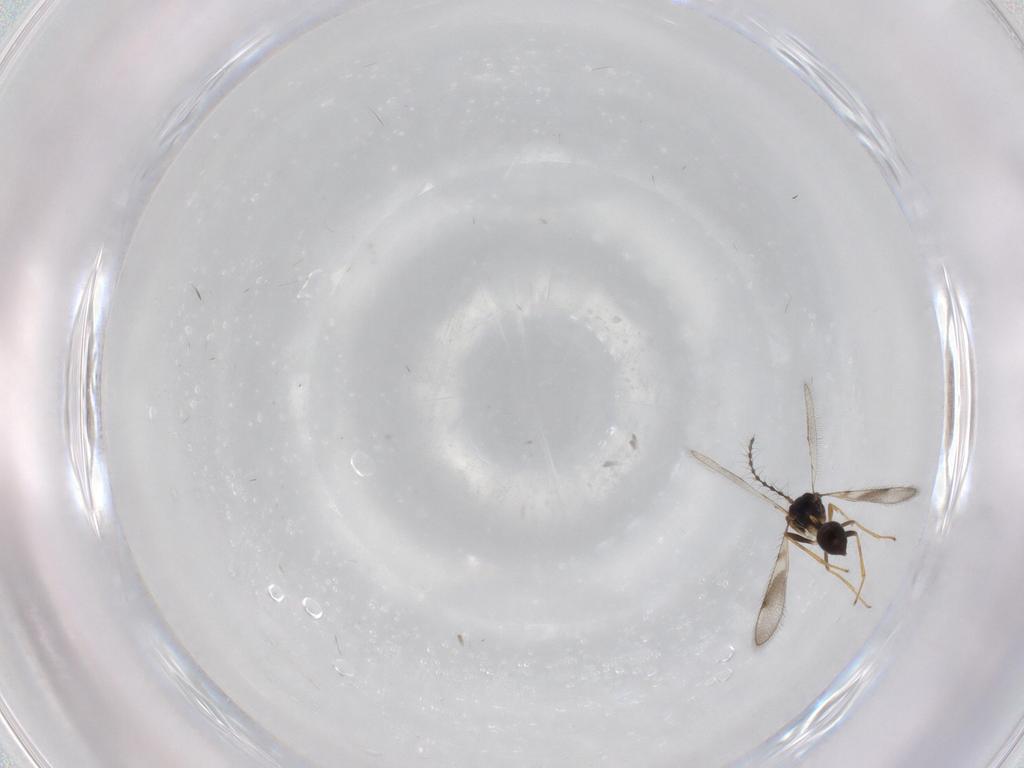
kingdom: Animalia
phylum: Arthropoda
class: Insecta
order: Hymenoptera
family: Formicidae
